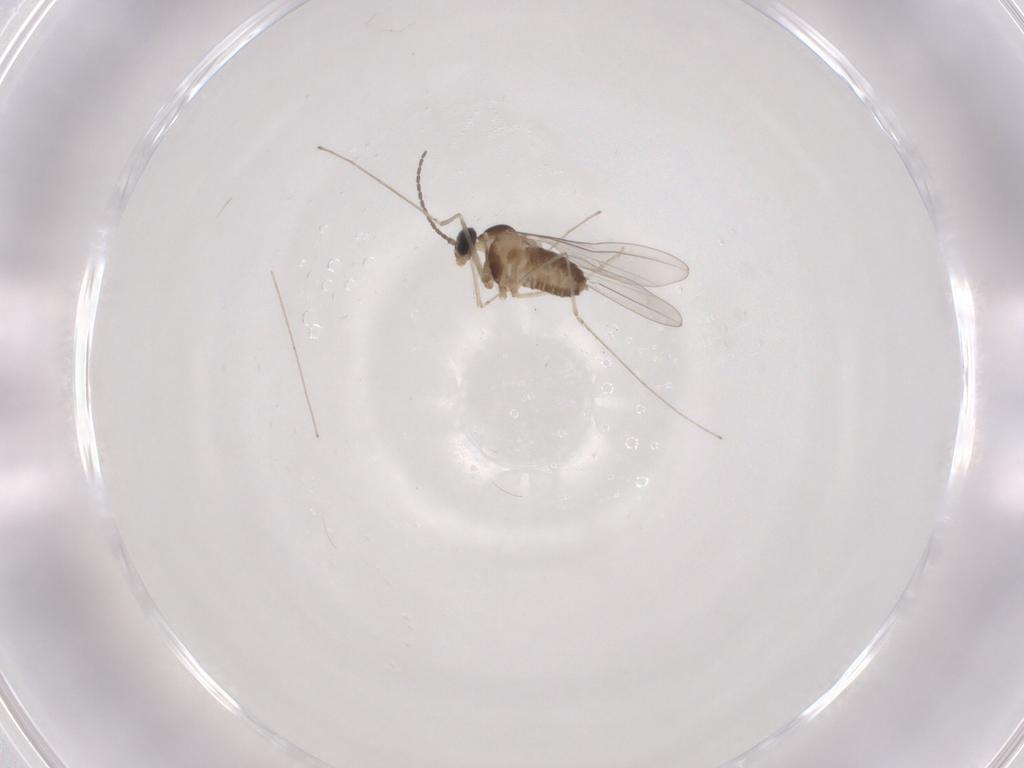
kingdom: Animalia
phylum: Arthropoda
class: Insecta
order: Diptera
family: Cecidomyiidae
